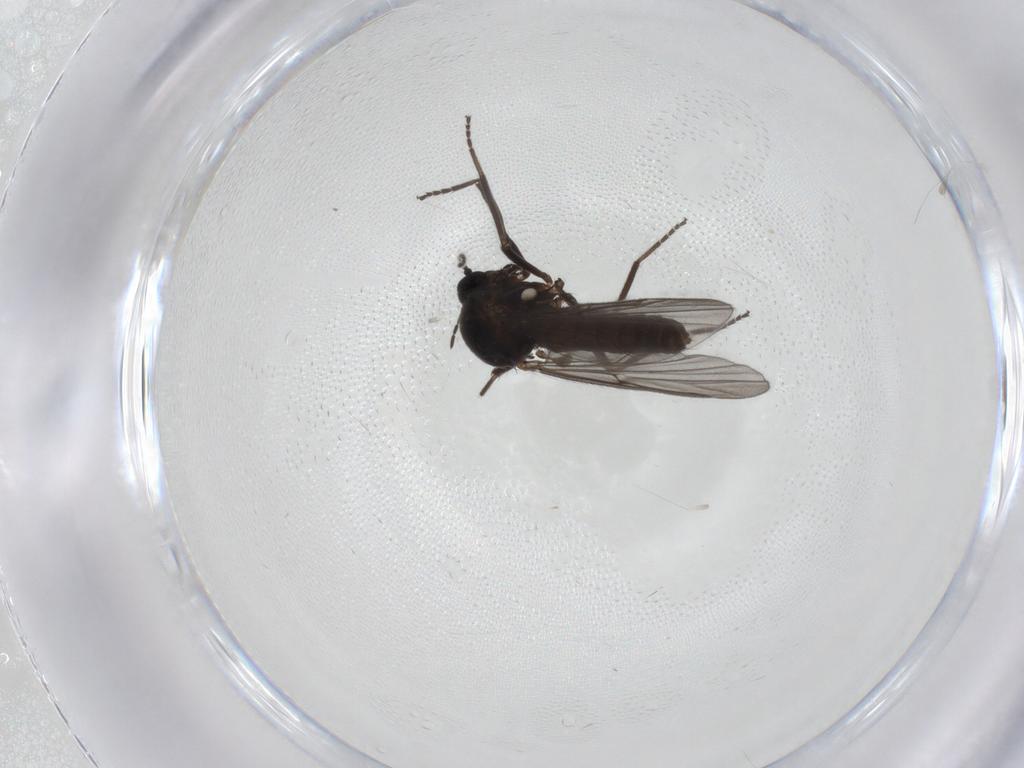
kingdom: Animalia
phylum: Arthropoda
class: Insecta
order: Diptera
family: Ceratopogonidae
